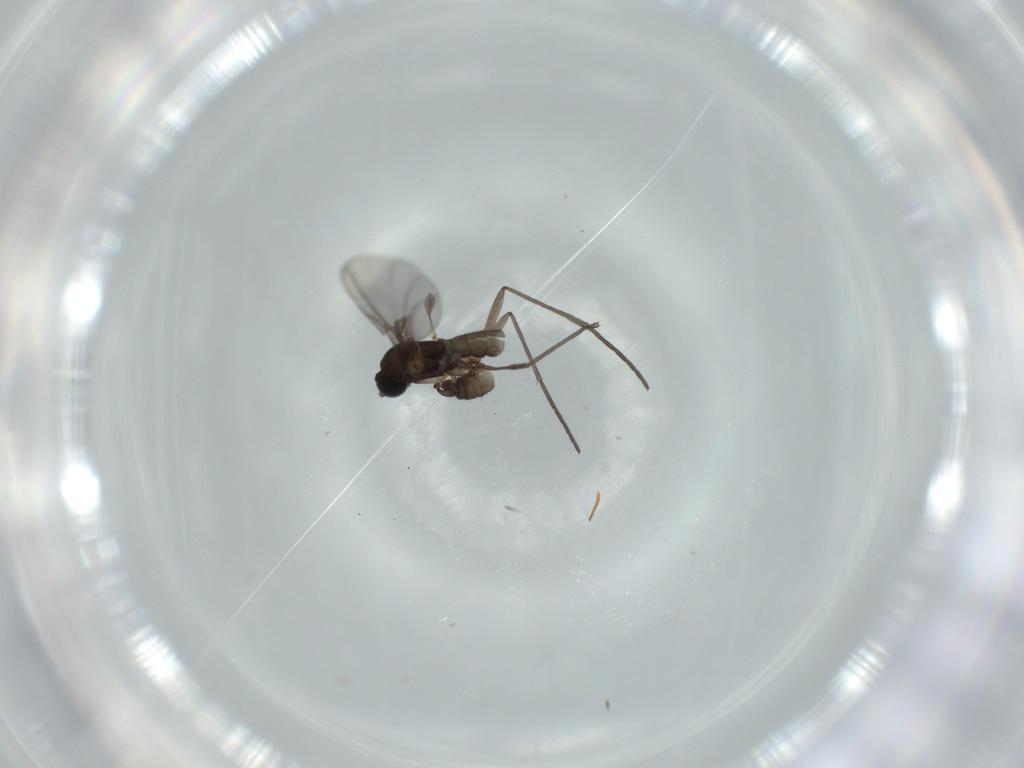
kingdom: Animalia
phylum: Arthropoda
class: Insecta
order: Diptera
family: Sciaridae
